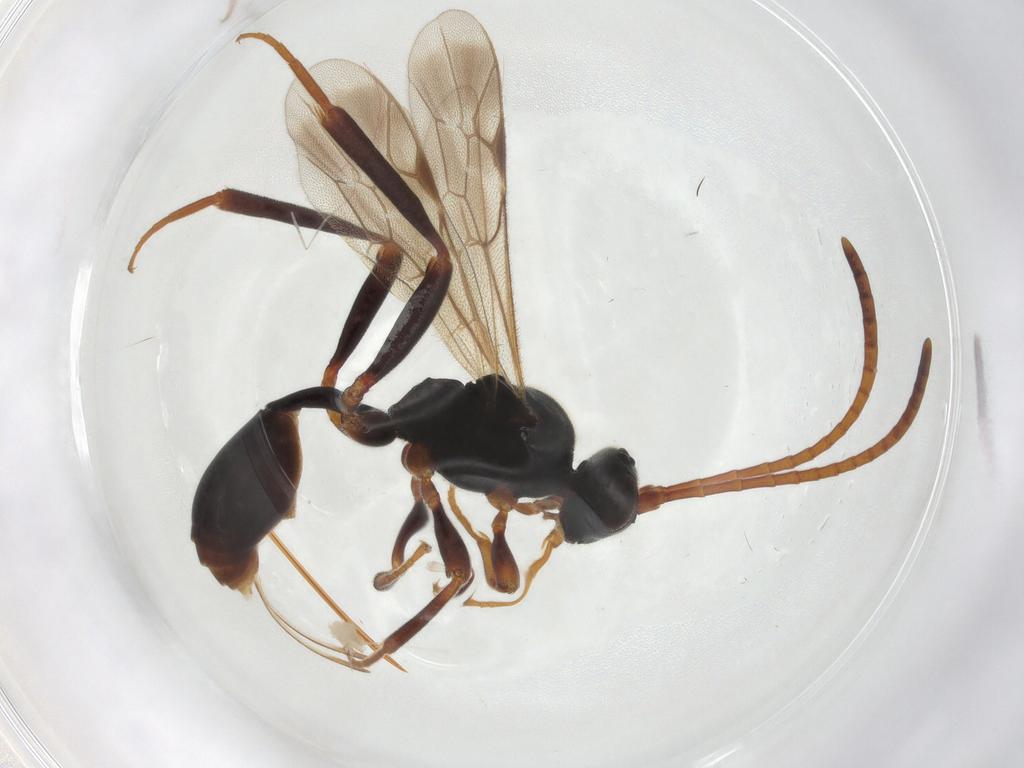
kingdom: Animalia
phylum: Arthropoda
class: Insecta
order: Hymenoptera
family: Ichneumonidae
